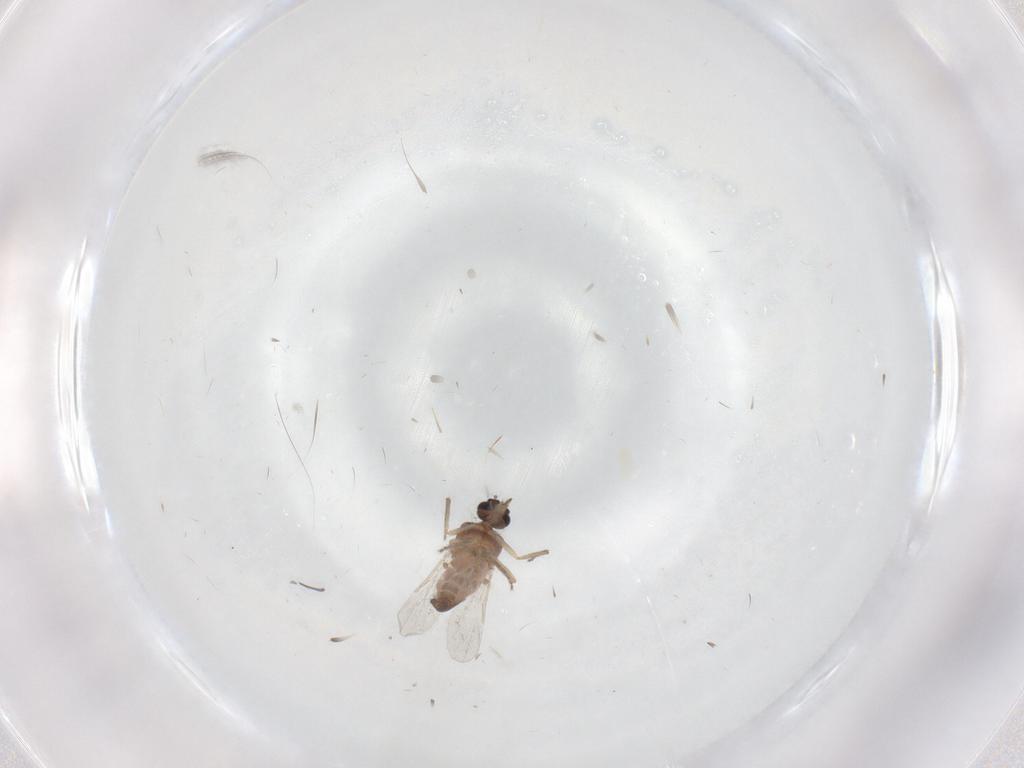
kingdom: Animalia
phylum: Arthropoda
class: Insecta
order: Diptera
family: Ceratopogonidae
